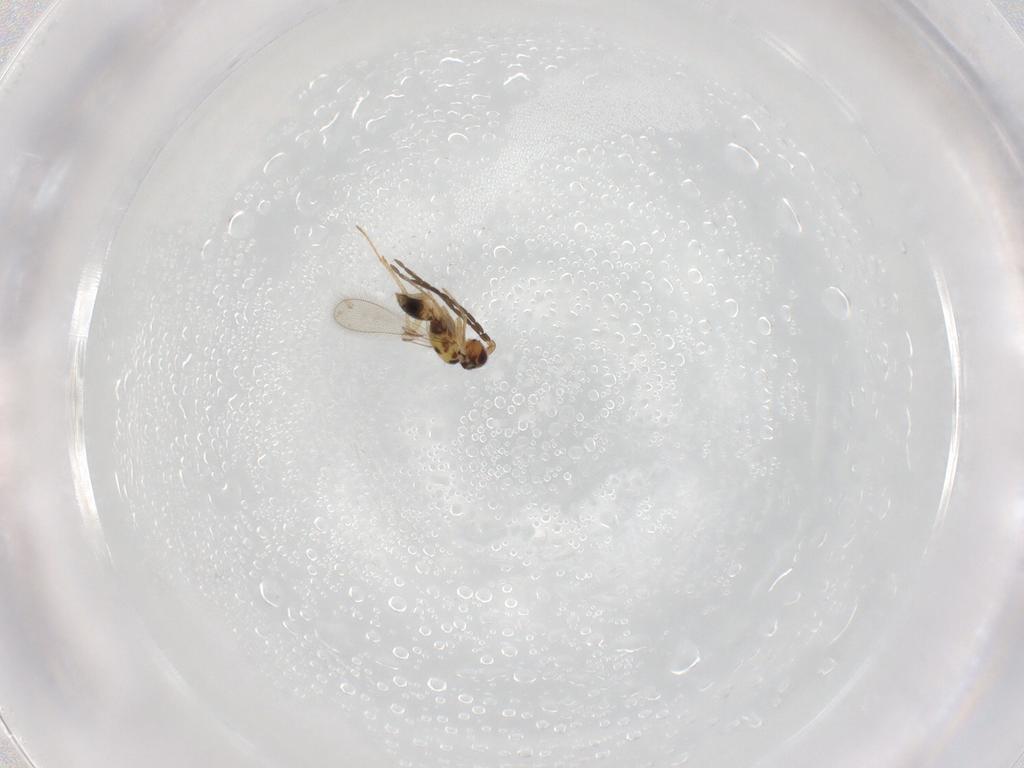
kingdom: Animalia
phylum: Arthropoda
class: Insecta
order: Hymenoptera
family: Mymaridae
